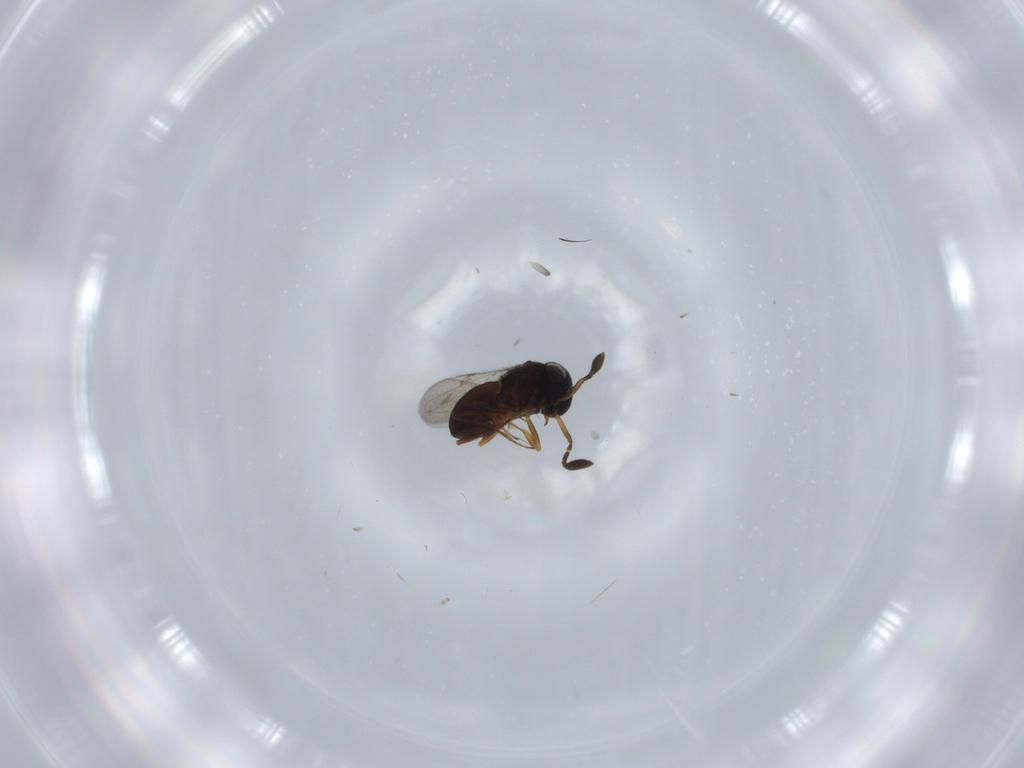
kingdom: Animalia
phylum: Arthropoda
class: Insecta
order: Coleoptera
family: Curculionidae
